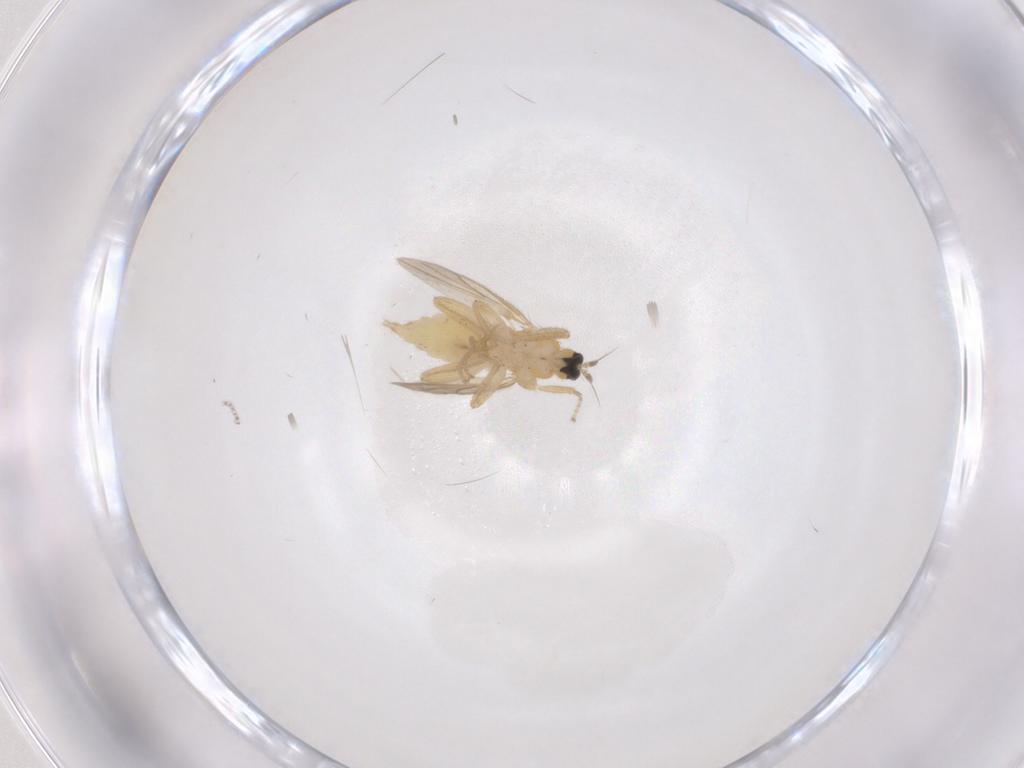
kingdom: Animalia
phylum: Arthropoda
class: Insecta
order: Diptera
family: Hybotidae
